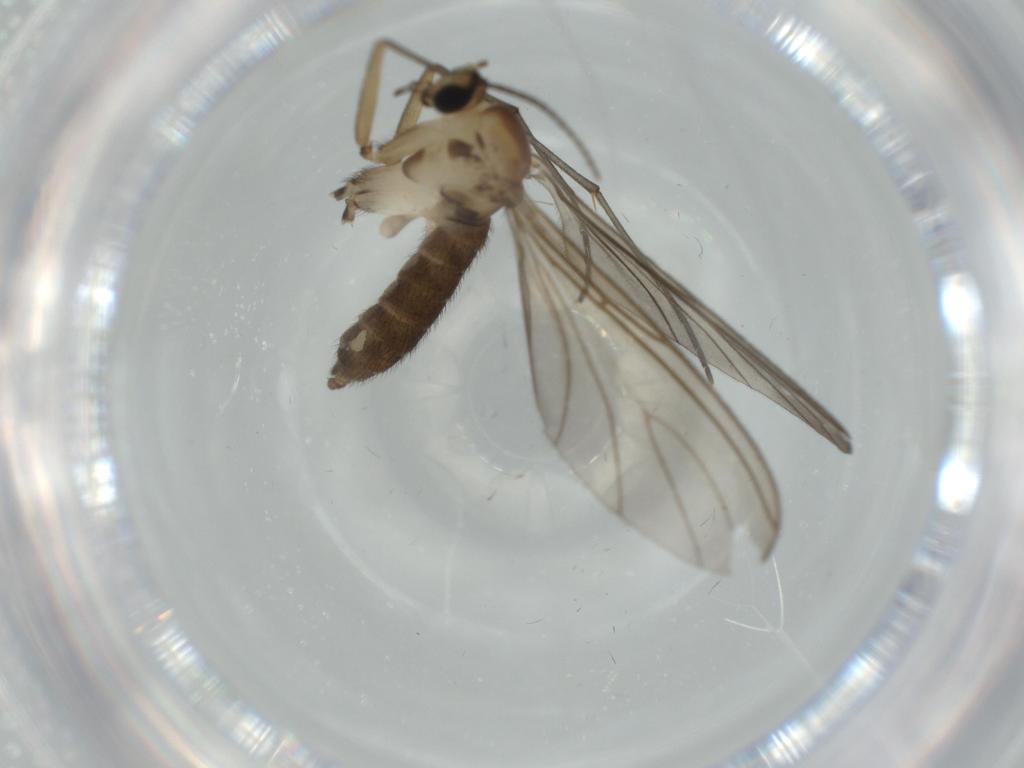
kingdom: Animalia
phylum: Arthropoda
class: Insecta
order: Diptera
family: Sciaridae
